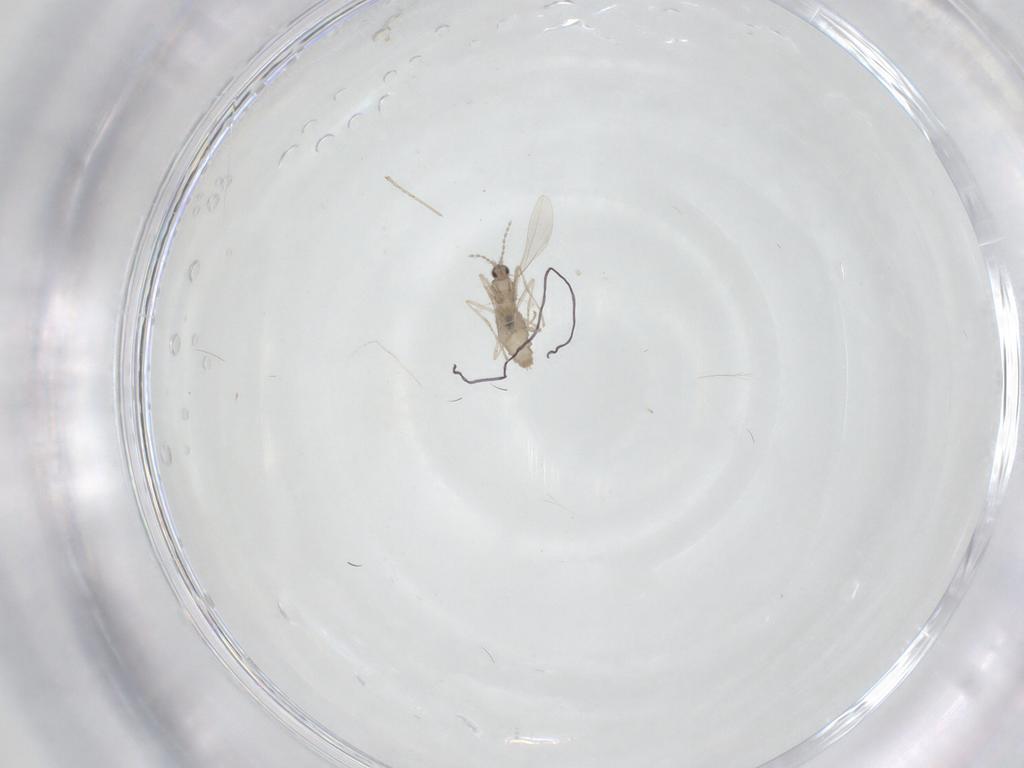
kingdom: Animalia
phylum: Arthropoda
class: Insecta
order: Diptera
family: Cecidomyiidae
